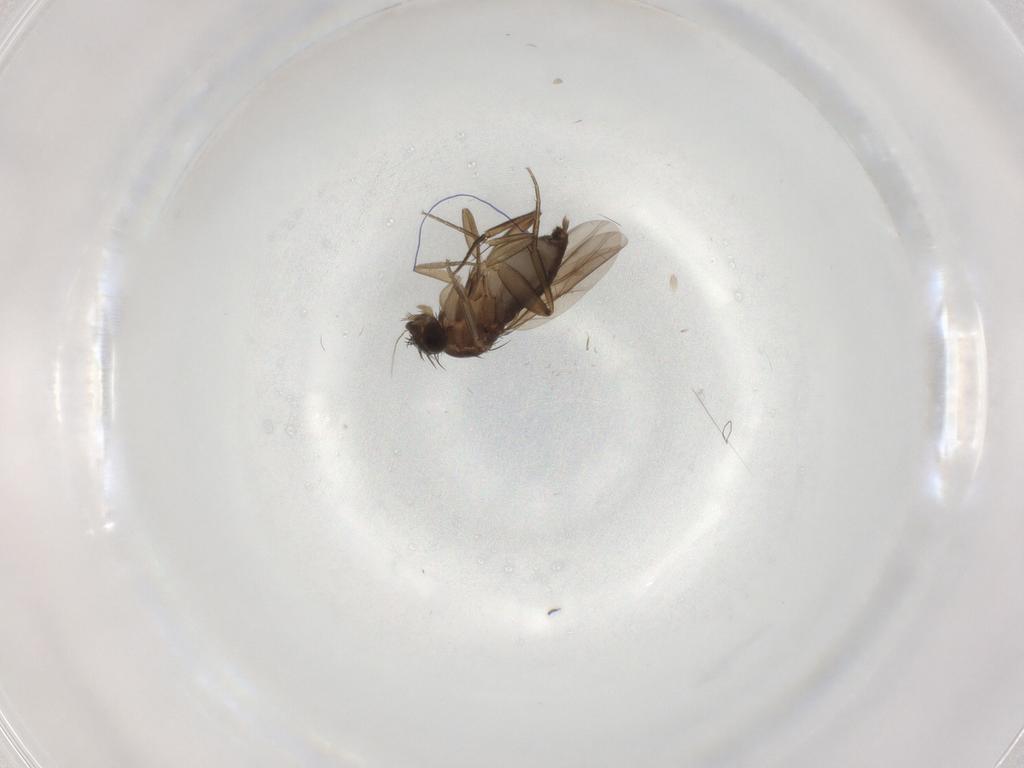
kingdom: Animalia
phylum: Arthropoda
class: Insecta
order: Diptera
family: Phoridae
